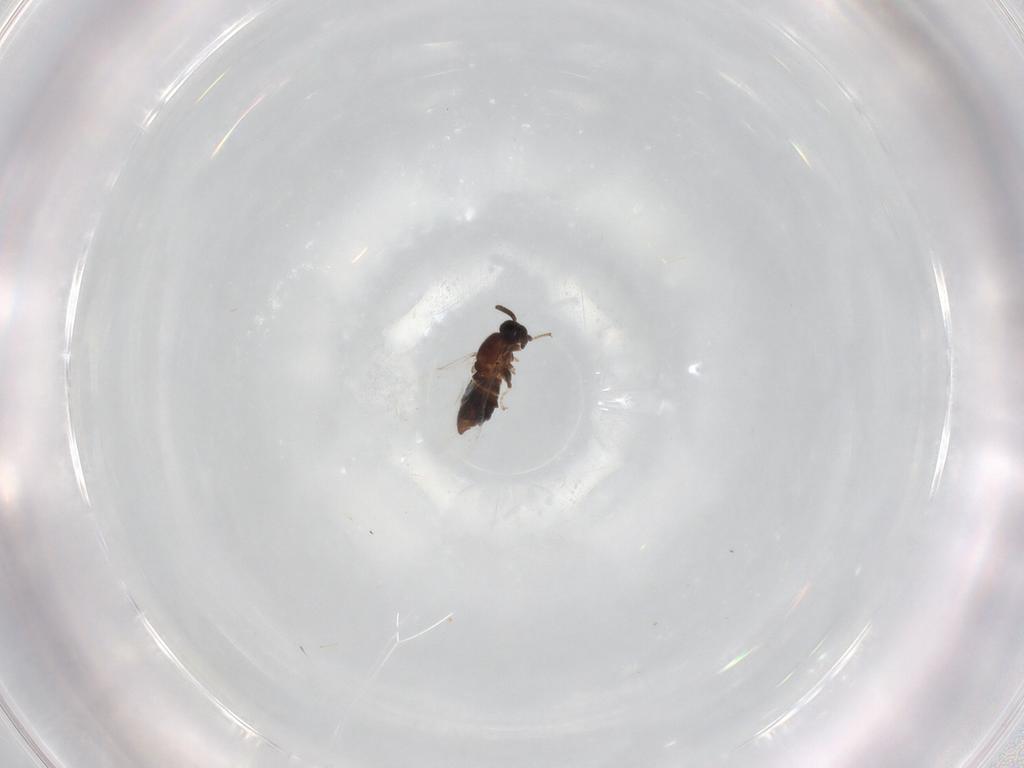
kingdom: Animalia
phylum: Arthropoda
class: Insecta
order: Diptera
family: Scatopsidae
